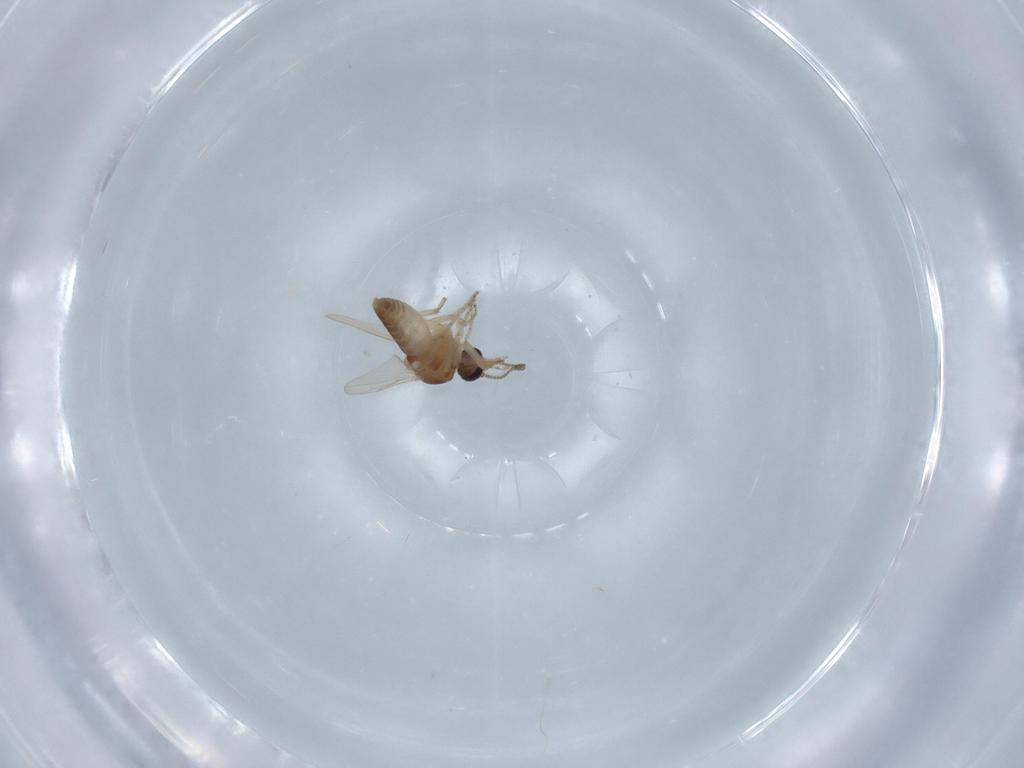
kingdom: Animalia
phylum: Arthropoda
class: Insecta
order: Diptera
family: Ceratopogonidae
